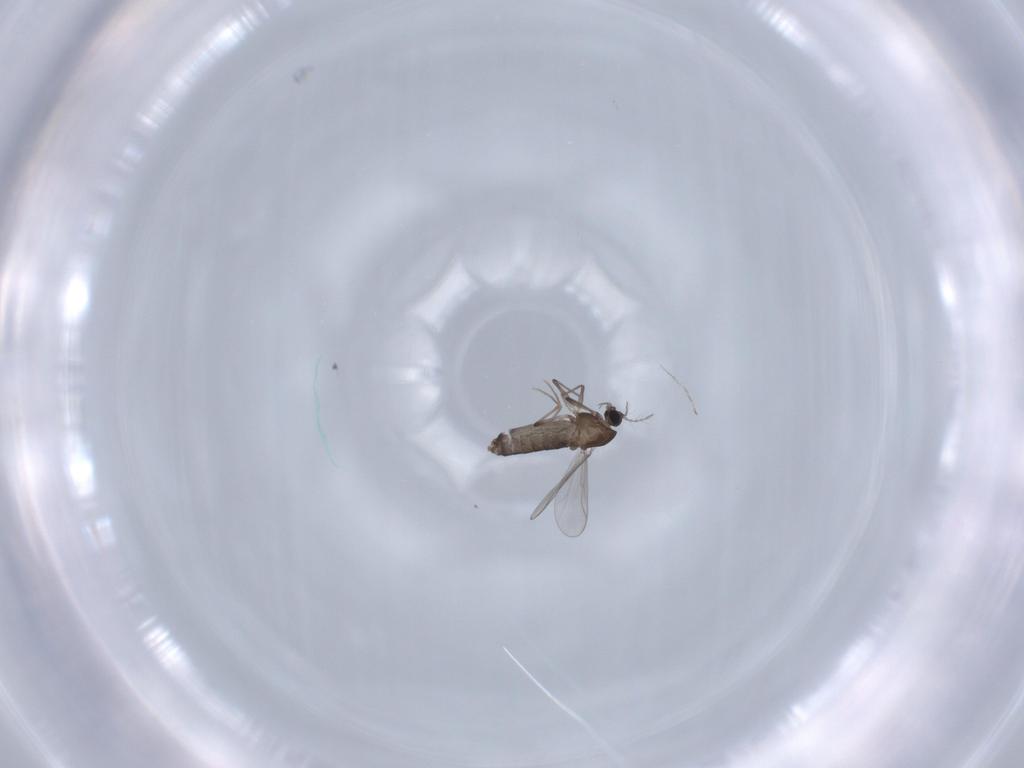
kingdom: Animalia
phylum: Arthropoda
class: Insecta
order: Diptera
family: Chironomidae
